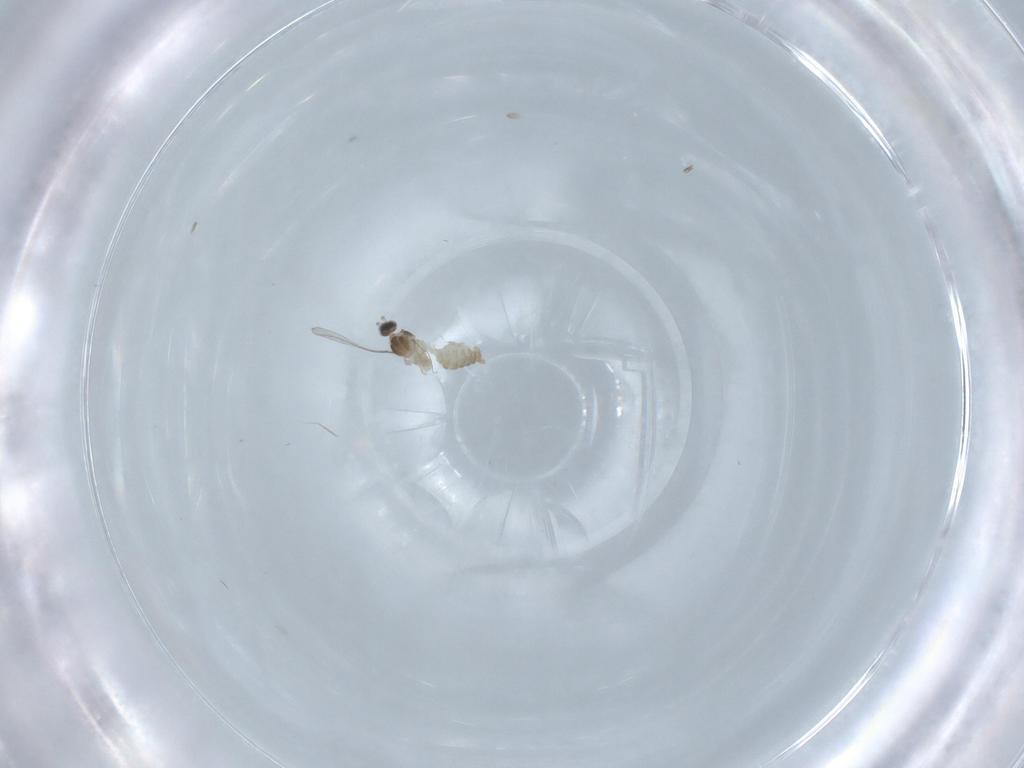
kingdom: Animalia
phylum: Arthropoda
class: Insecta
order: Diptera
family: Cecidomyiidae
